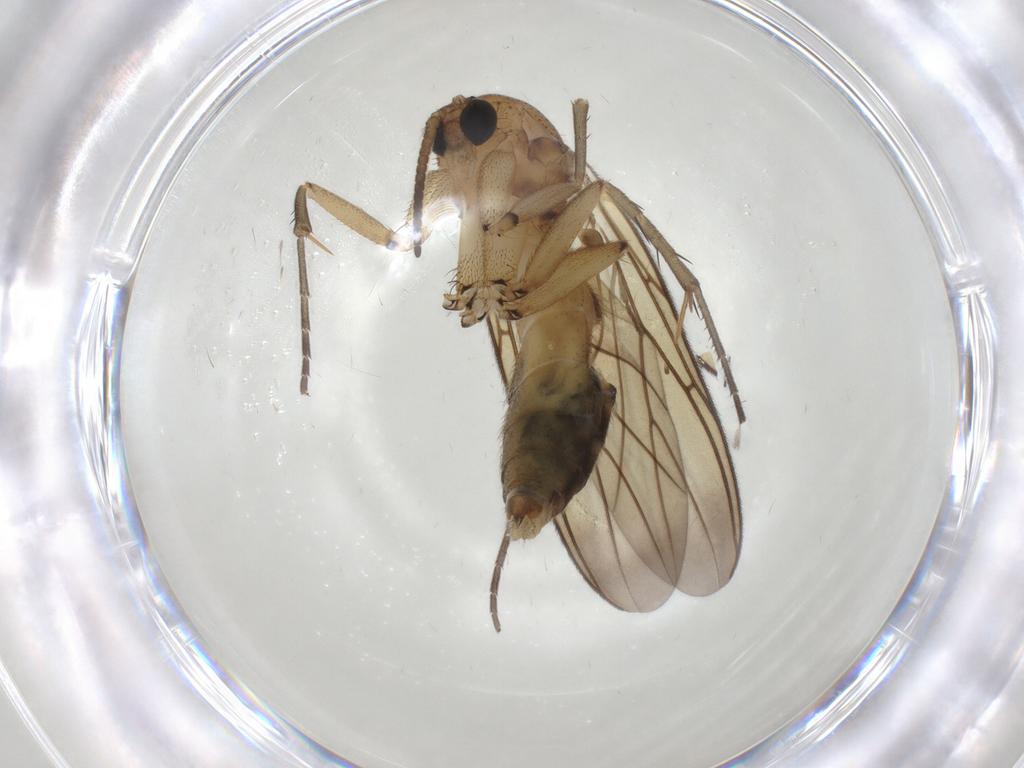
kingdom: Animalia
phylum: Arthropoda
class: Insecta
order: Diptera
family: Mycetophilidae
